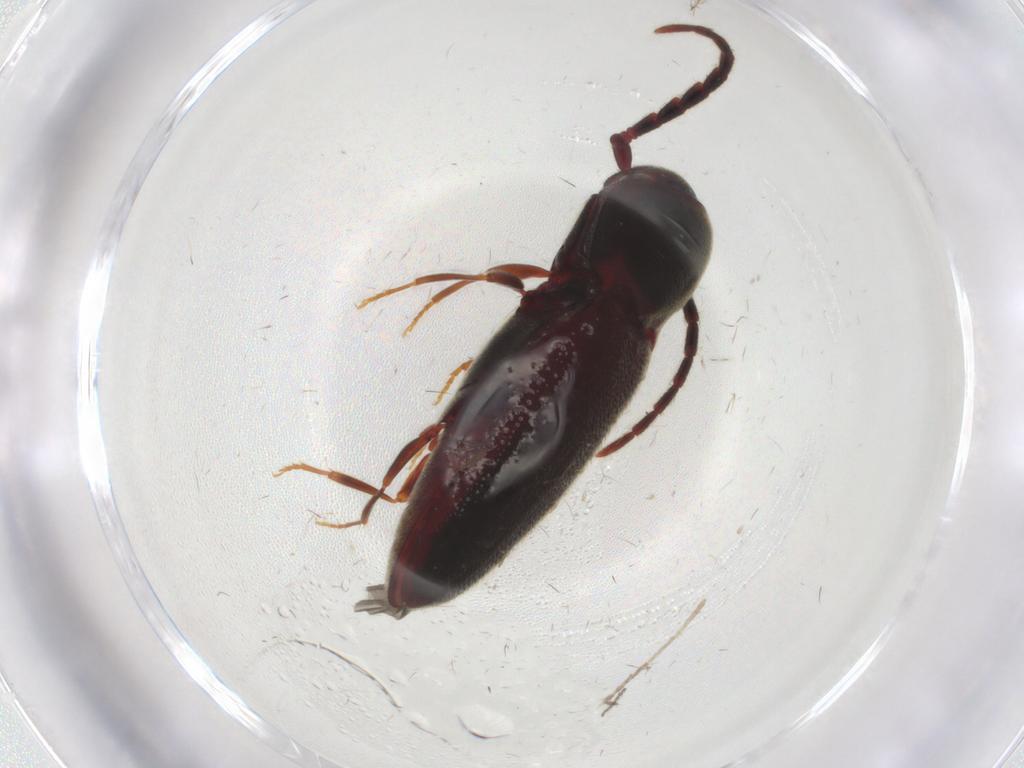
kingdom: Animalia
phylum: Arthropoda
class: Insecta
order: Coleoptera
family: Eucnemidae
